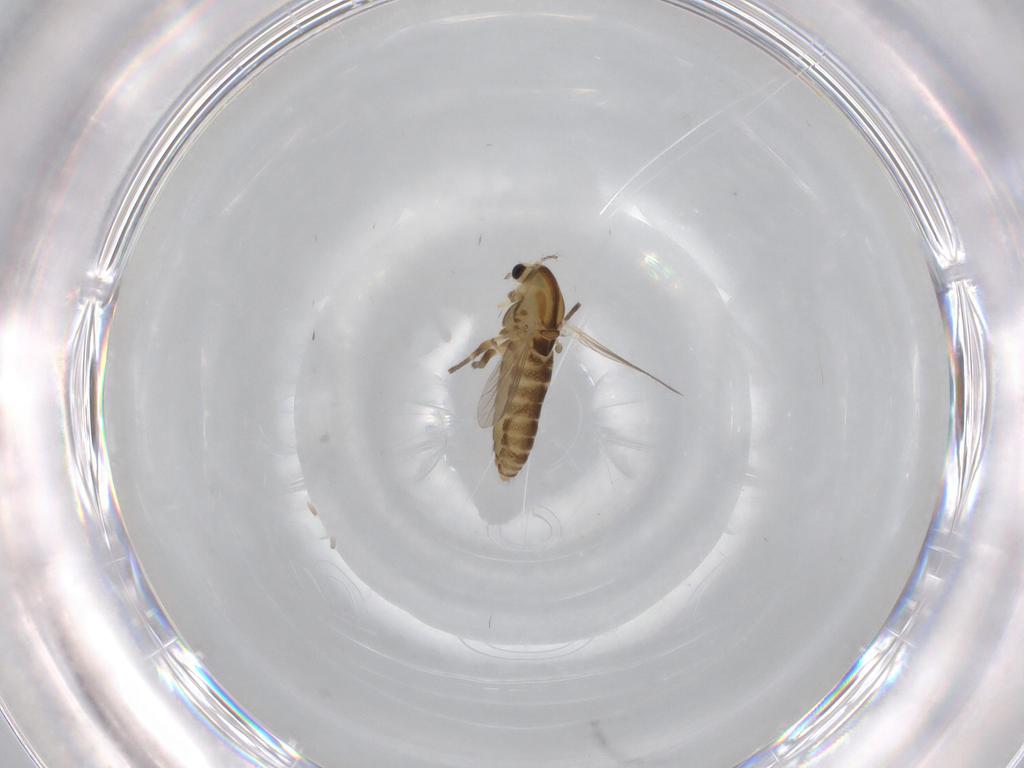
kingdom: Animalia
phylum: Arthropoda
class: Insecta
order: Diptera
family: Chironomidae
